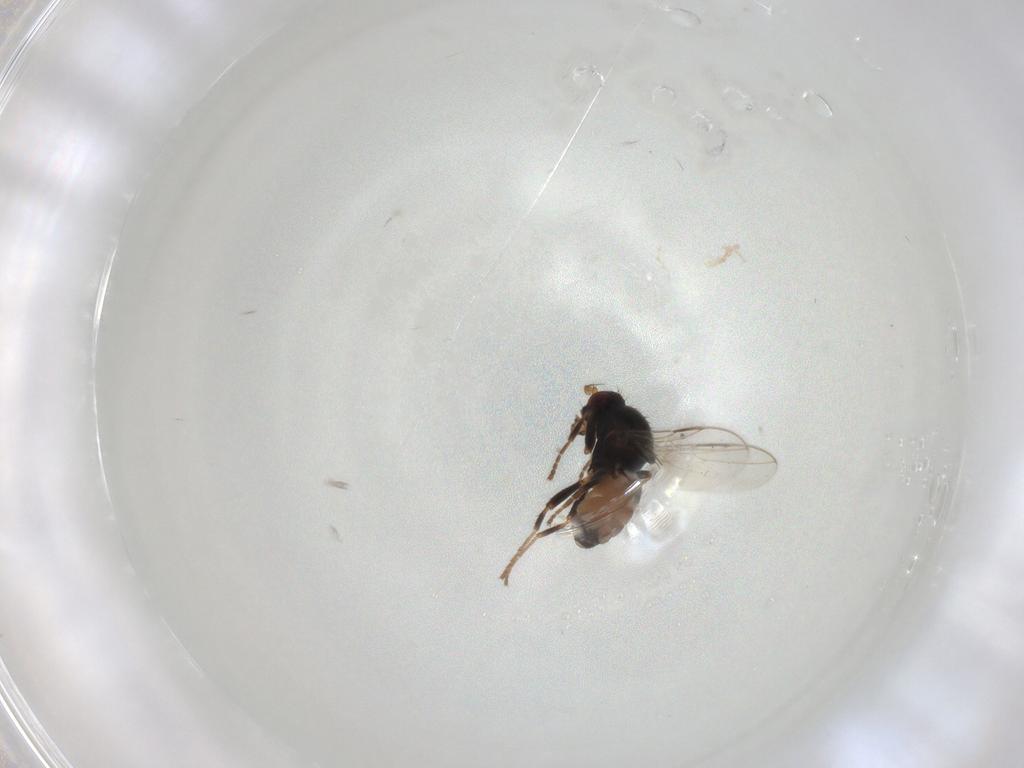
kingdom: Animalia
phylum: Arthropoda
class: Insecta
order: Diptera
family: Sphaeroceridae
